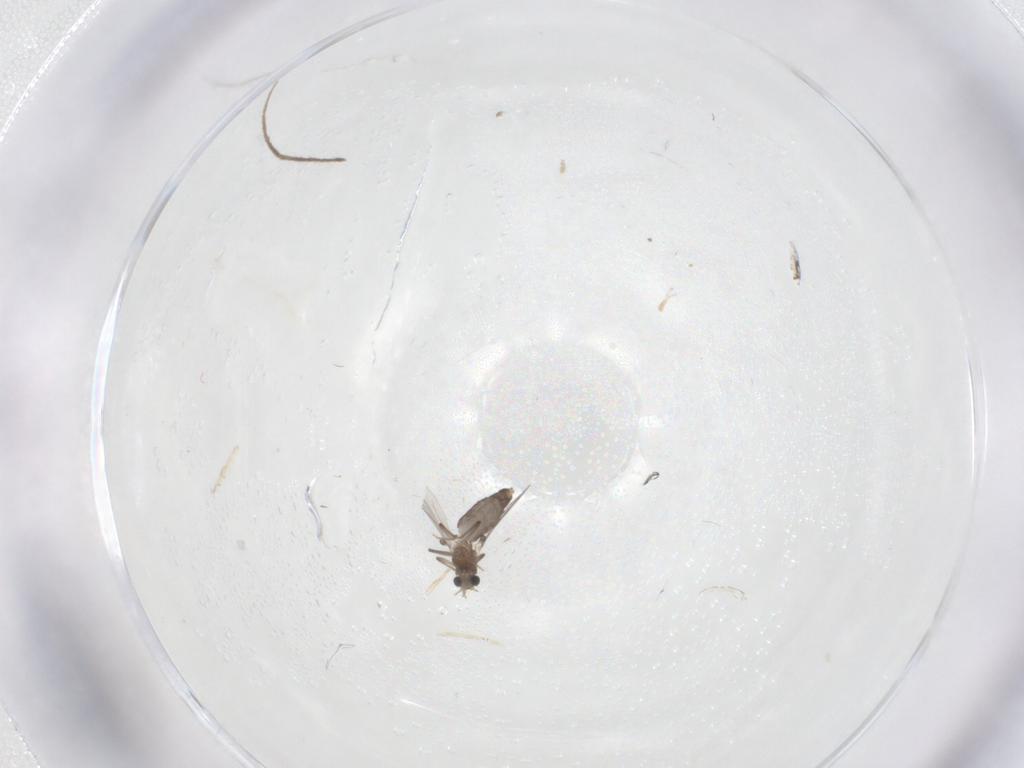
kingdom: Animalia
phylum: Arthropoda
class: Insecta
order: Diptera
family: Chironomidae
